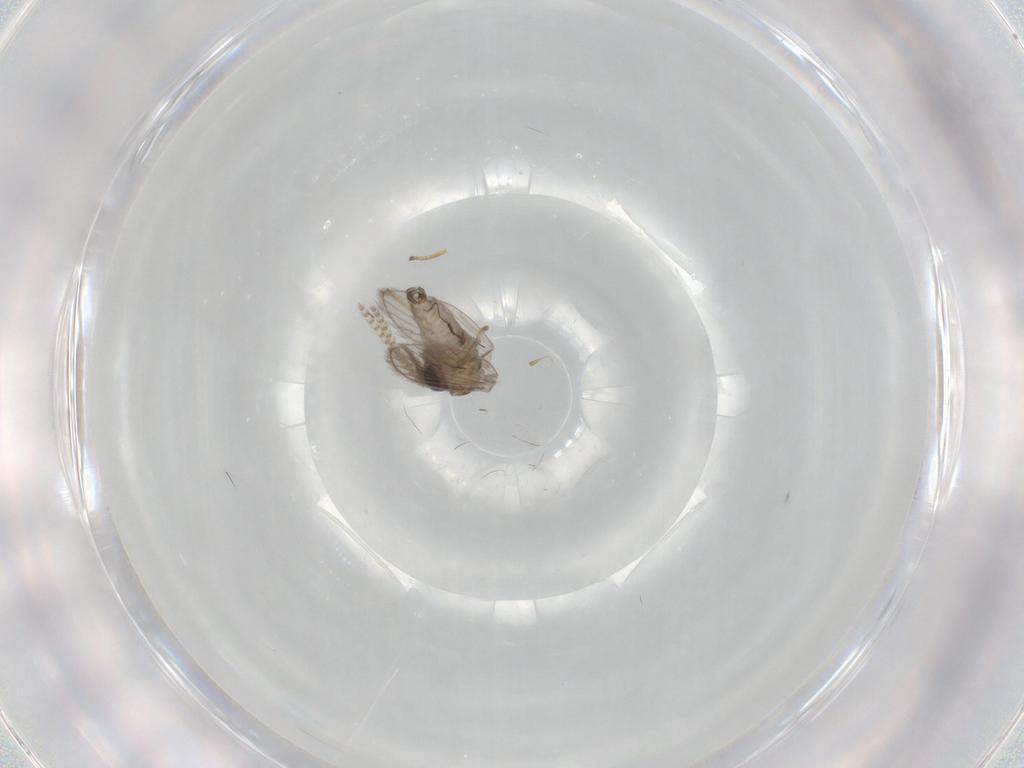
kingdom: Animalia
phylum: Arthropoda
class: Insecta
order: Diptera
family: Psychodidae
